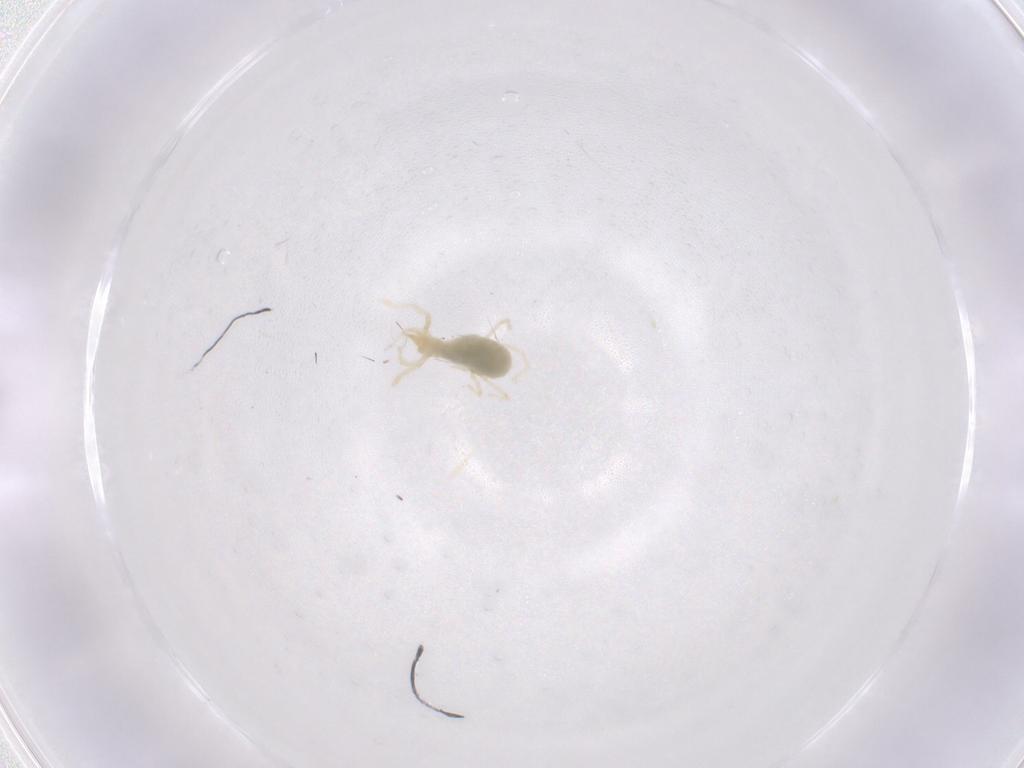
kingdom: Animalia
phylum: Arthropoda
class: Arachnida
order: Trombidiformes
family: Erythraeidae
